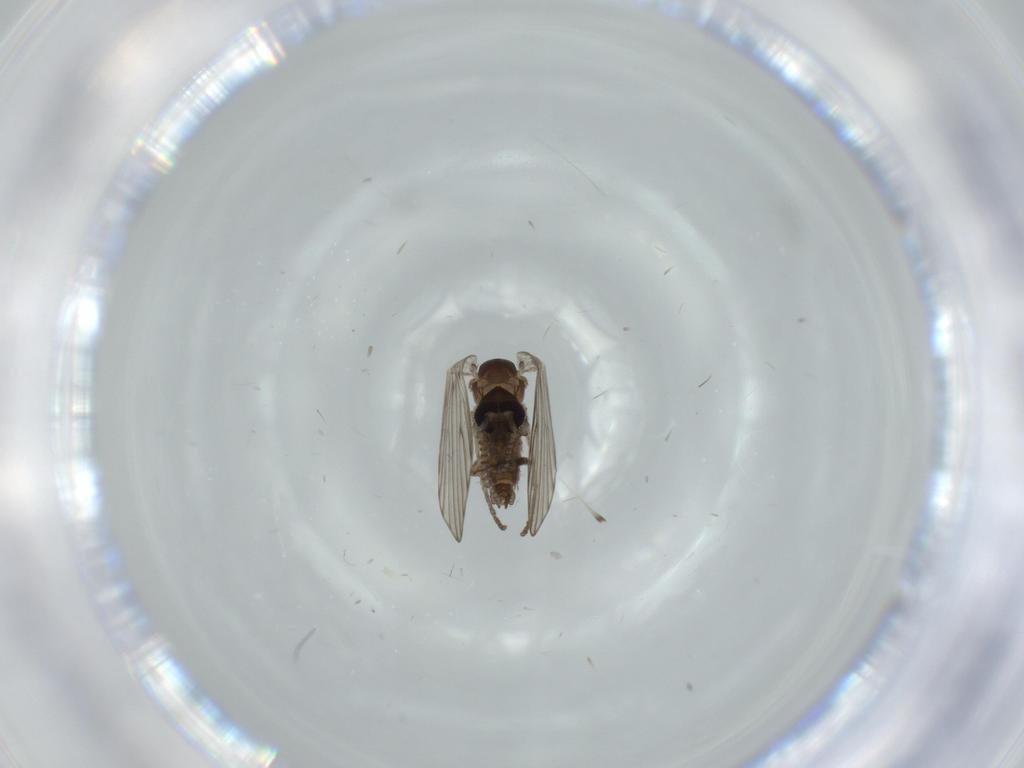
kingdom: Animalia
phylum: Arthropoda
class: Insecta
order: Diptera
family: Psychodidae
